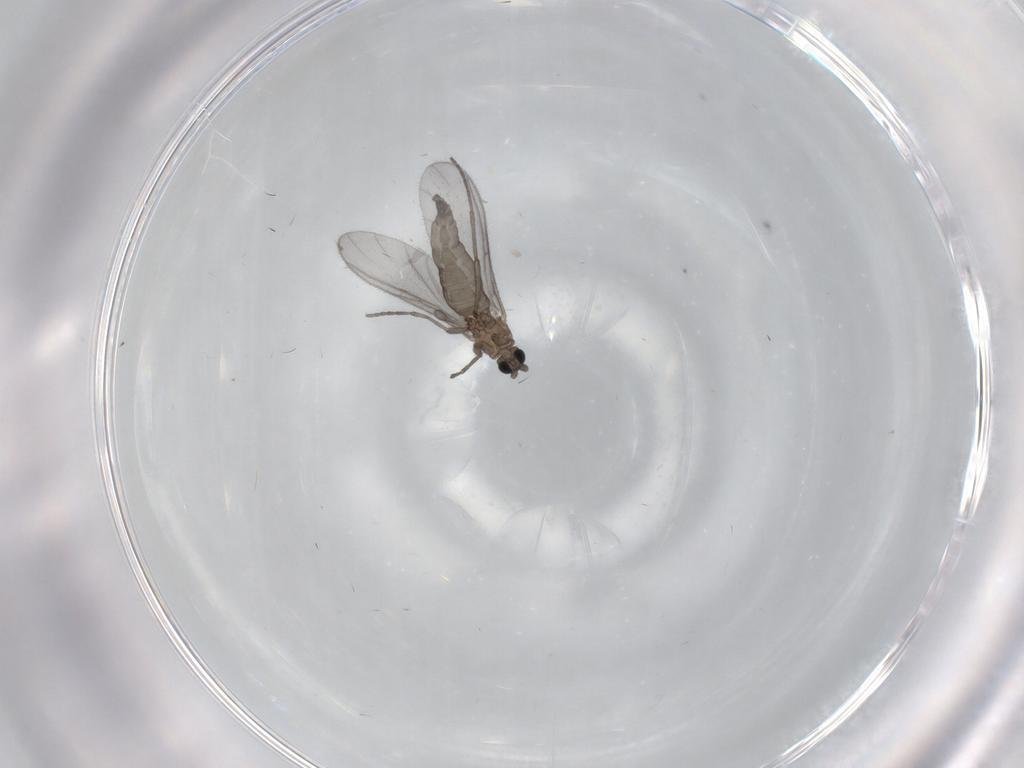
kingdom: Animalia
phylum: Arthropoda
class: Insecta
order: Diptera
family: Sciaridae
